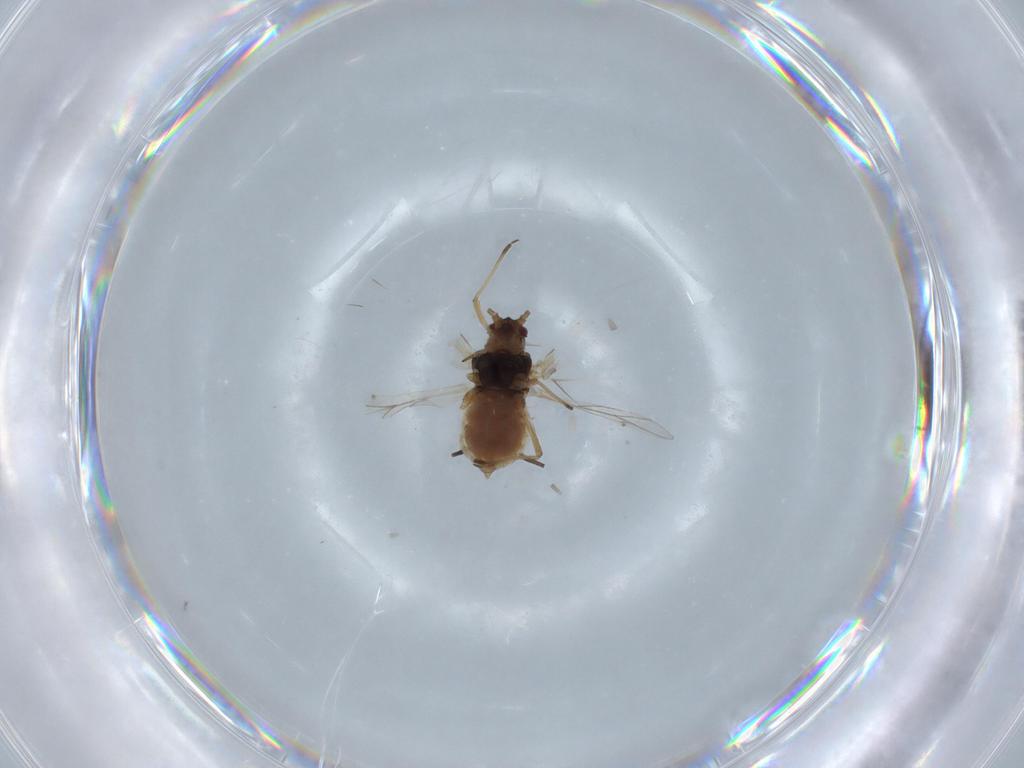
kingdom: Animalia
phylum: Arthropoda
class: Insecta
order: Hemiptera
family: Aphididae
